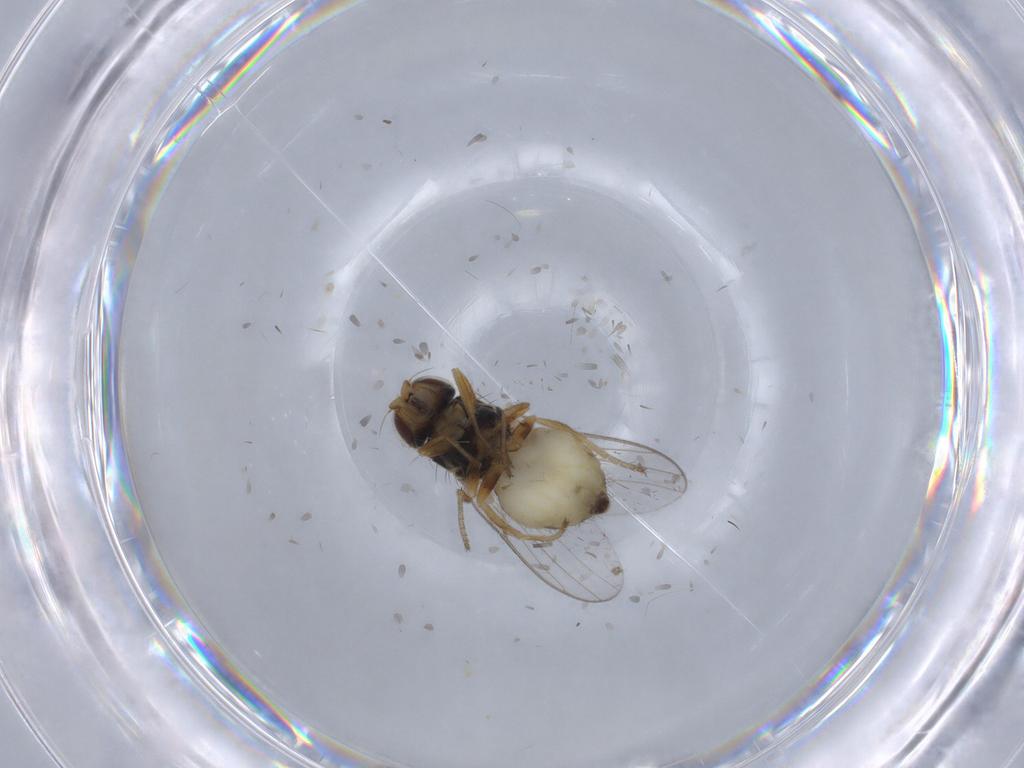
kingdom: Animalia
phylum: Arthropoda
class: Insecta
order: Diptera
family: Chloropidae
